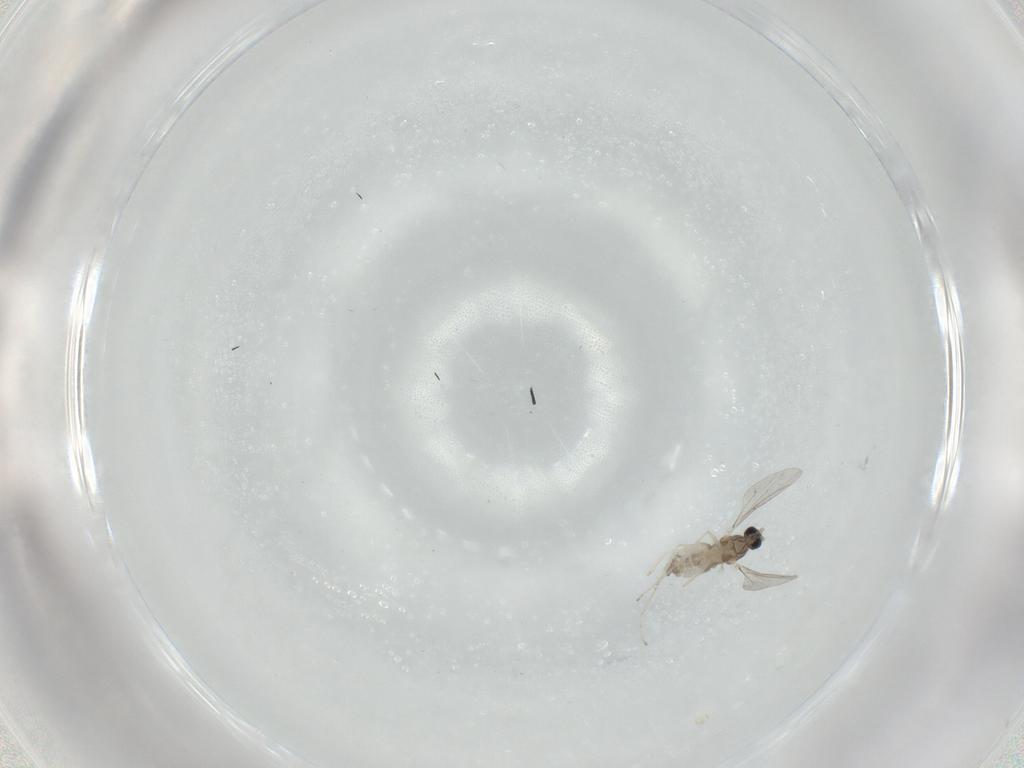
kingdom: Animalia
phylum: Arthropoda
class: Insecta
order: Diptera
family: Cecidomyiidae
